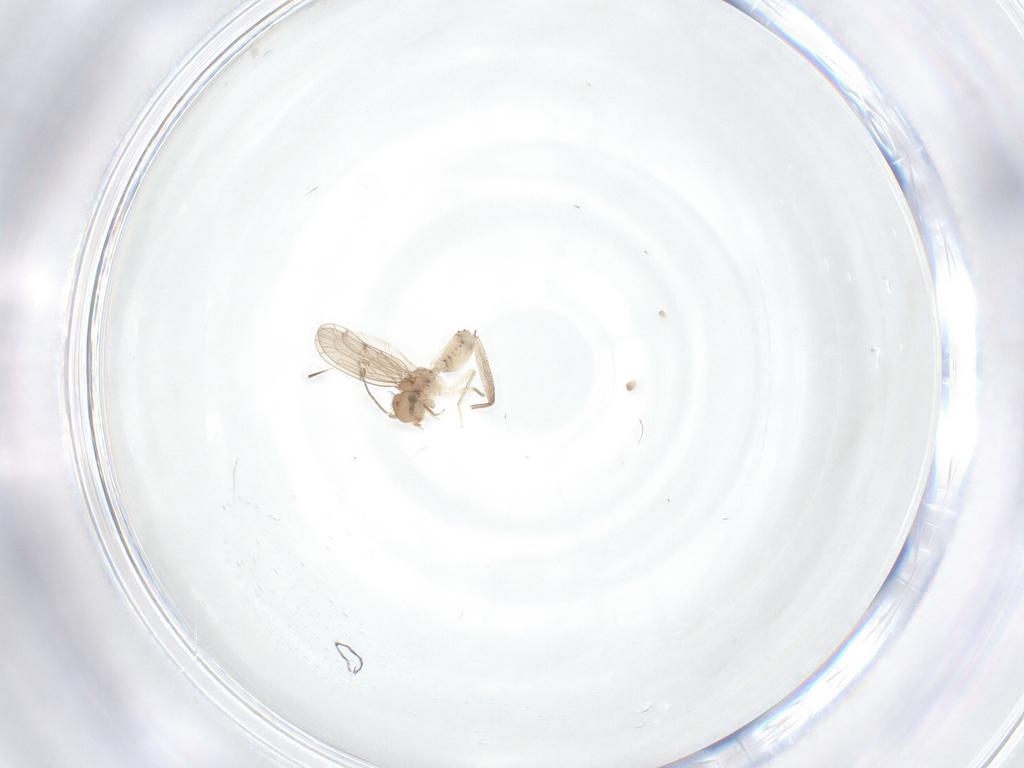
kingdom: Animalia
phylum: Arthropoda
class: Insecta
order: Psocodea
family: Ectopsocidae
